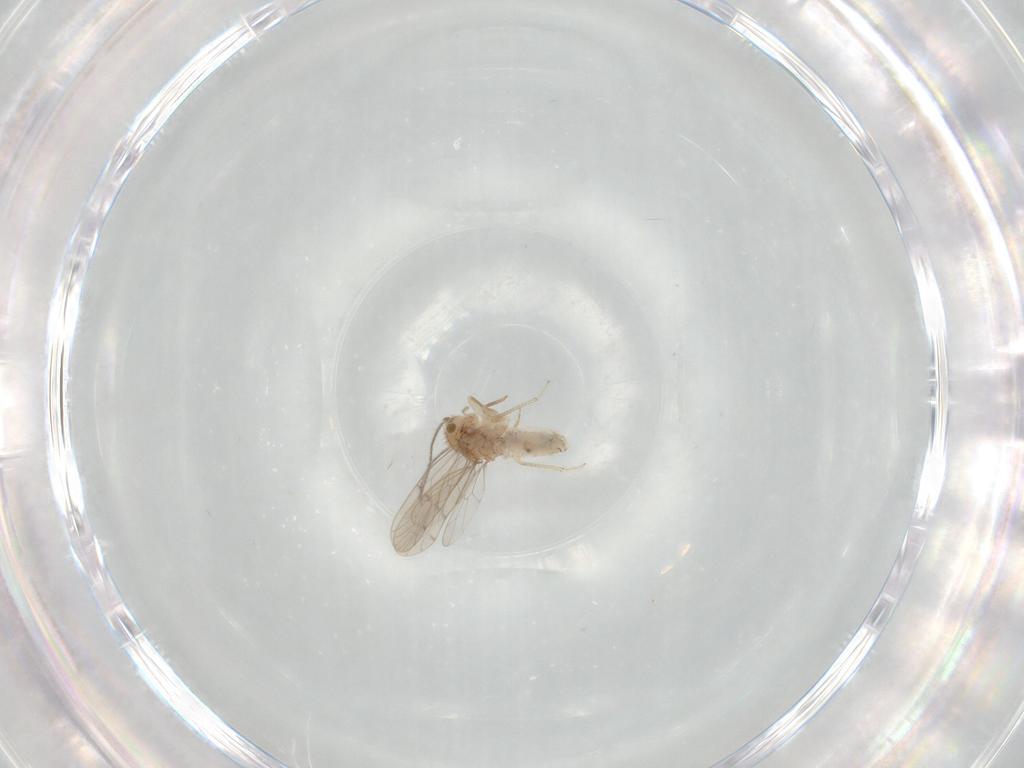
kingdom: Animalia
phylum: Arthropoda
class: Insecta
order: Psocodea
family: Ectopsocidae
